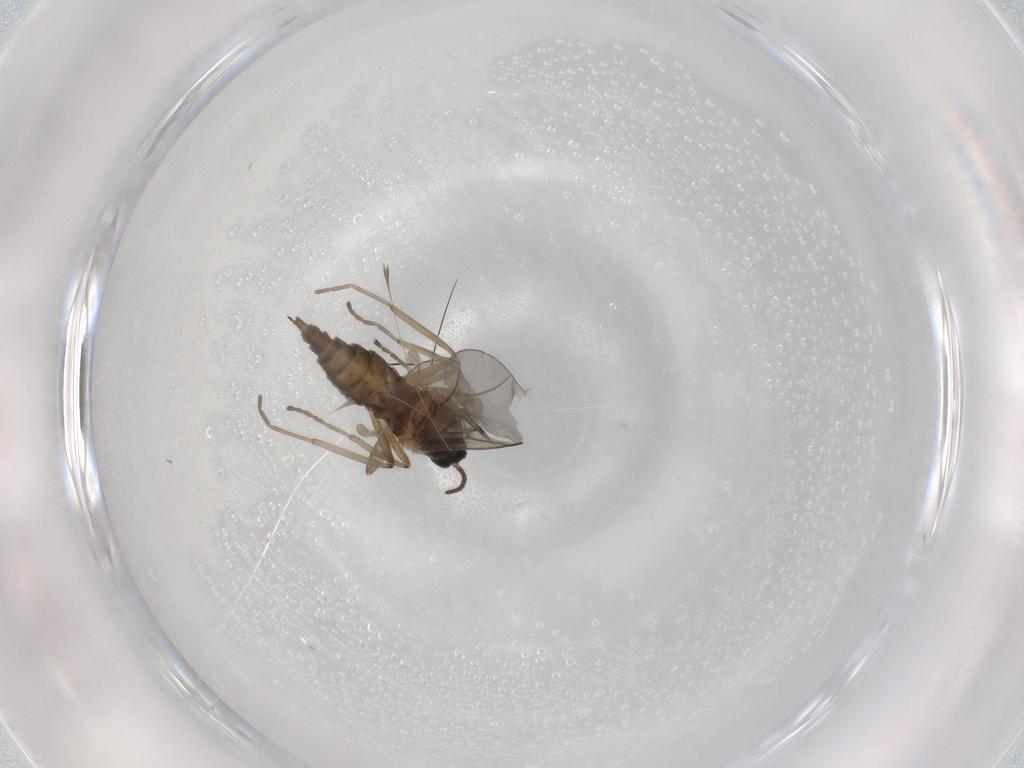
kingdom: Animalia
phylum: Arthropoda
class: Insecta
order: Diptera
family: Cecidomyiidae
